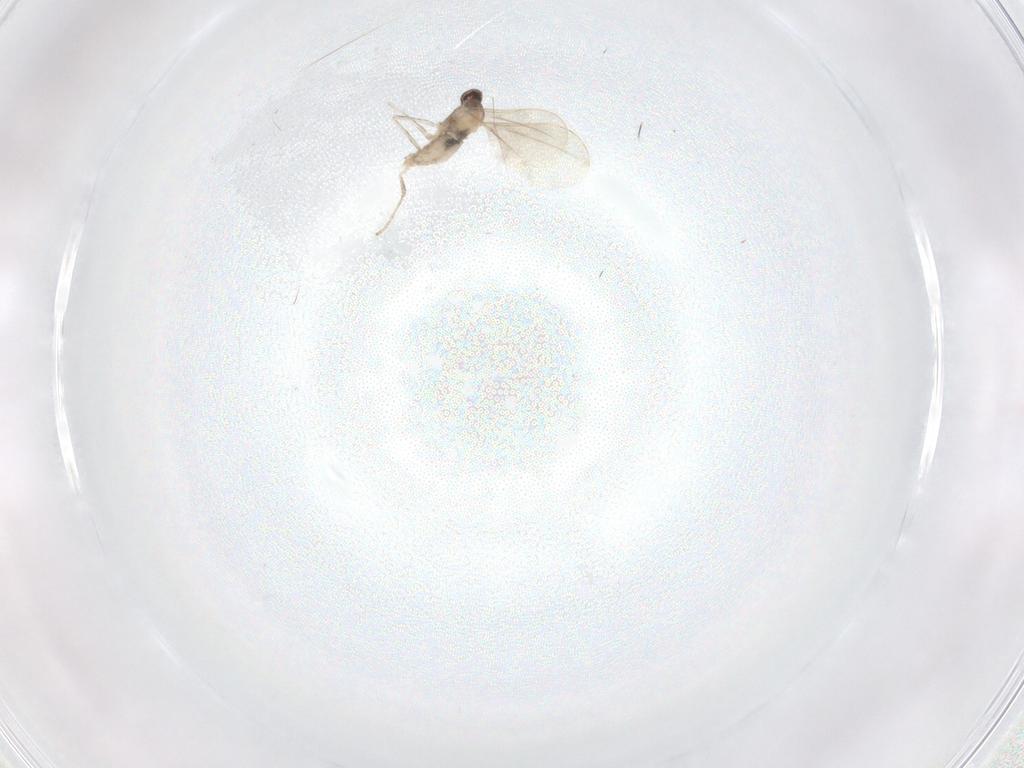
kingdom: Animalia
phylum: Arthropoda
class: Insecta
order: Diptera
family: Cecidomyiidae
